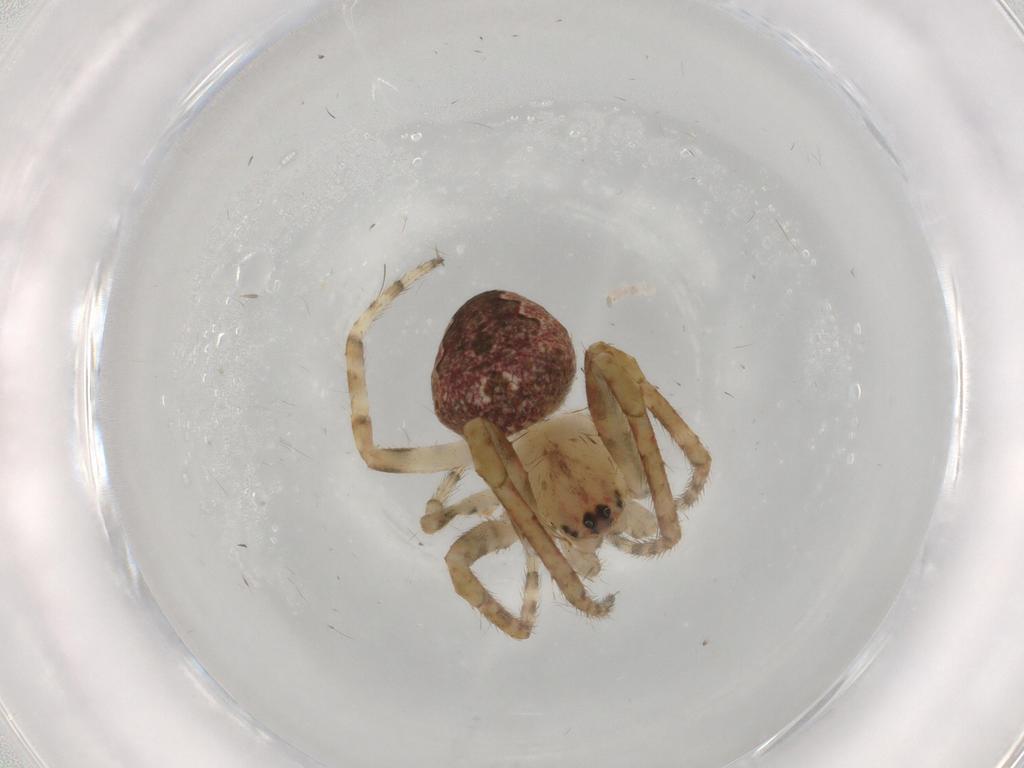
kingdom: Animalia
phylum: Arthropoda
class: Arachnida
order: Araneae
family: Araneidae
